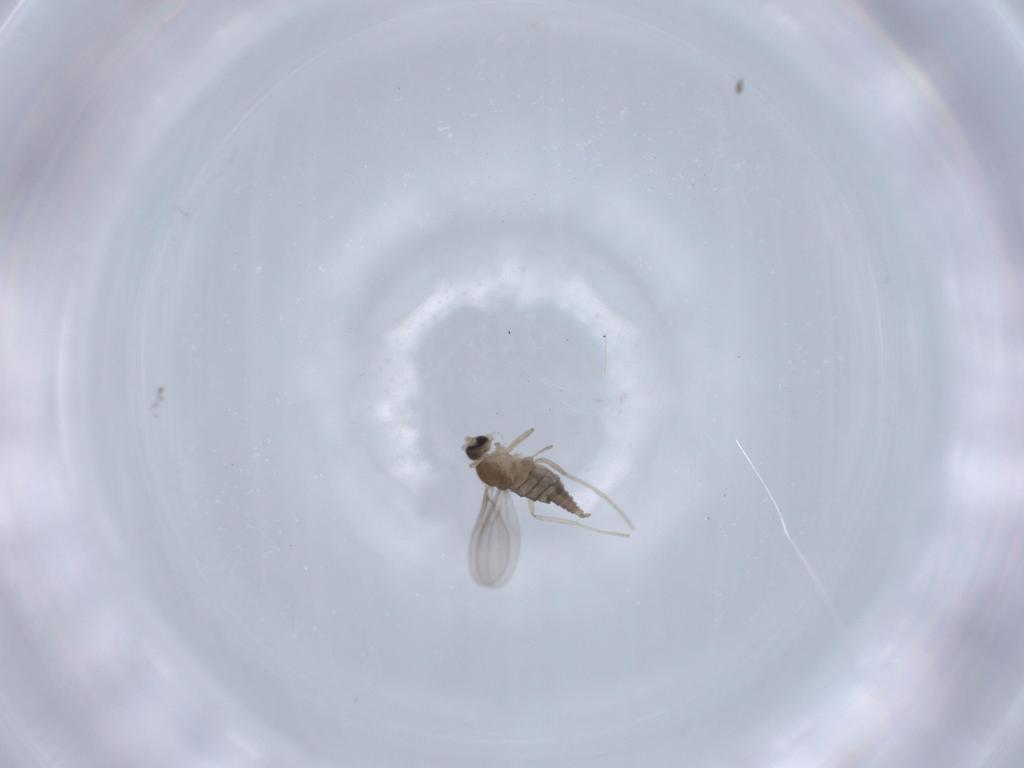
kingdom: Animalia
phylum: Arthropoda
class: Insecta
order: Diptera
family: Cecidomyiidae
